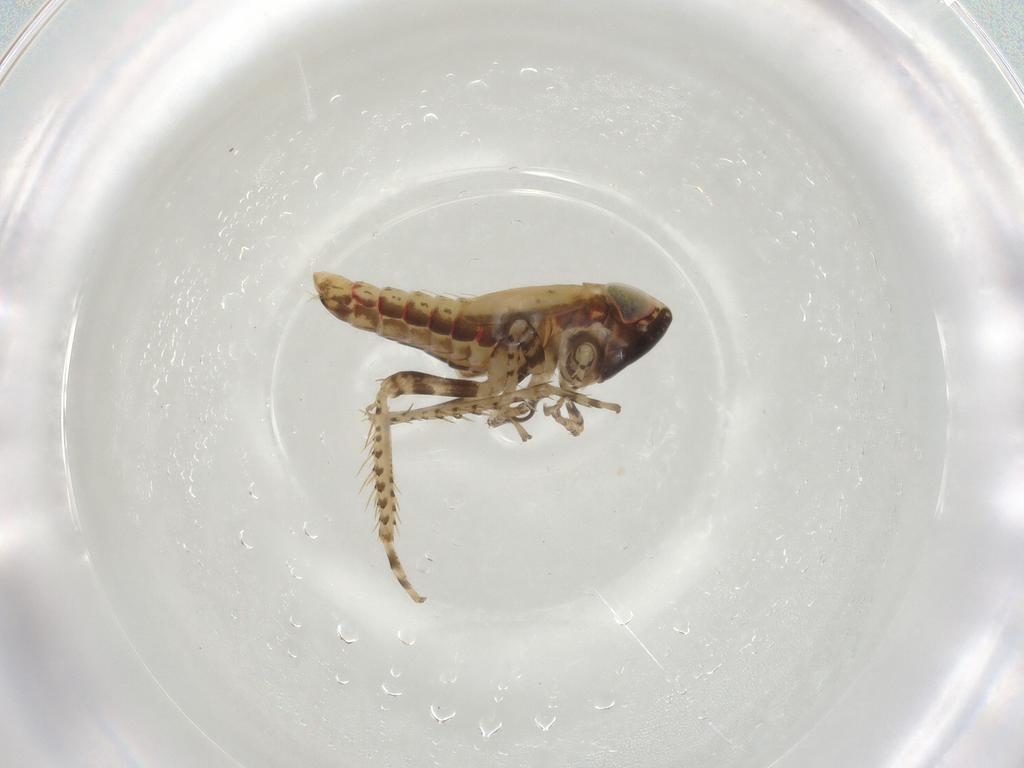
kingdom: Animalia
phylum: Arthropoda
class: Insecta
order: Hemiptera
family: Cicadellidae
